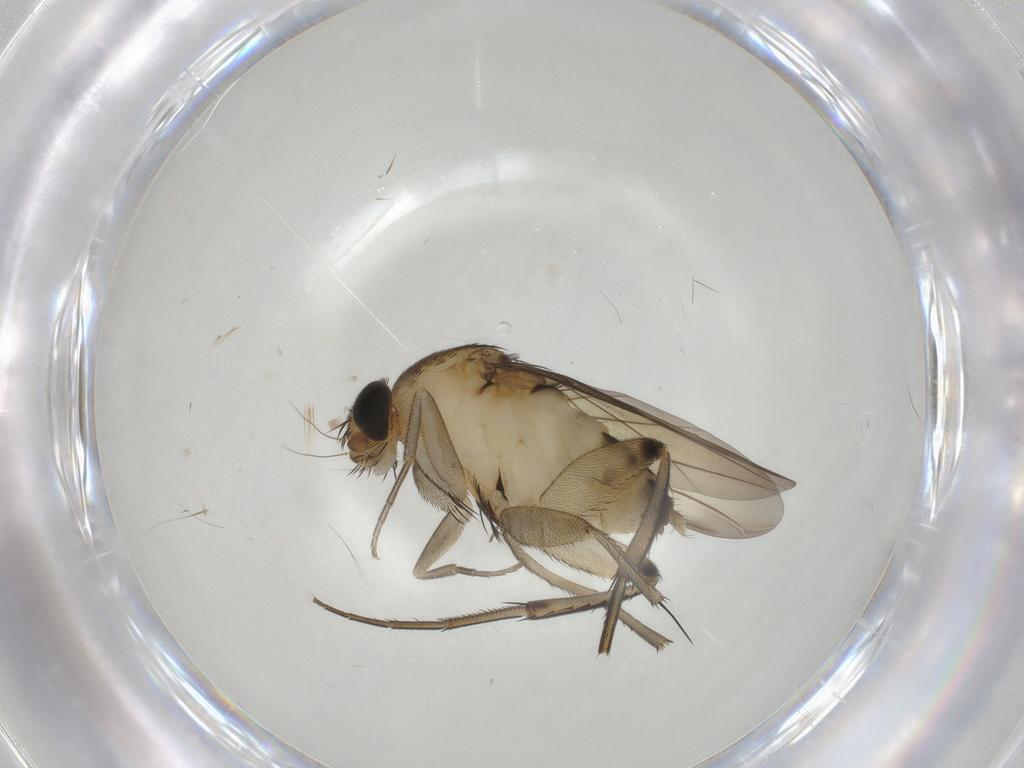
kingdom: Animalia
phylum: Arthropoda
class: Insecta
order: Diptera
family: Phoridae
